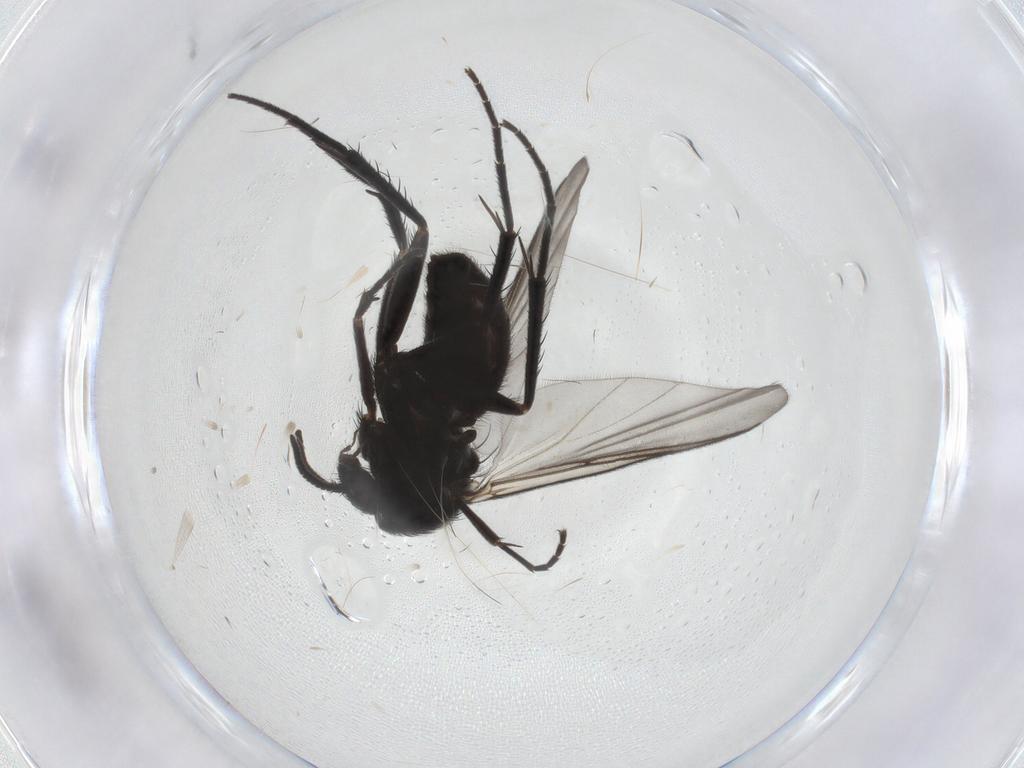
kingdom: Animalia
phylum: Arthropoda
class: Insecta
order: Diptera
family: Mycetophilidae
